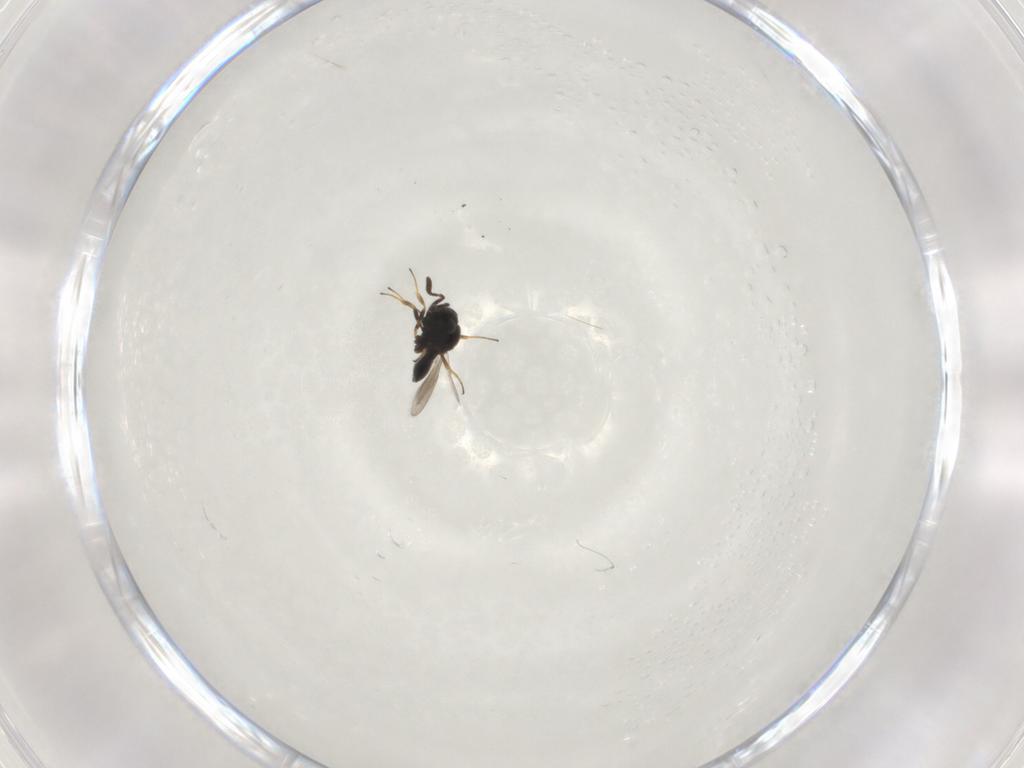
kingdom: Animalia
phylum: Arthropoda
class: Insecta
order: Hymenoptera
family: Scelionidae
